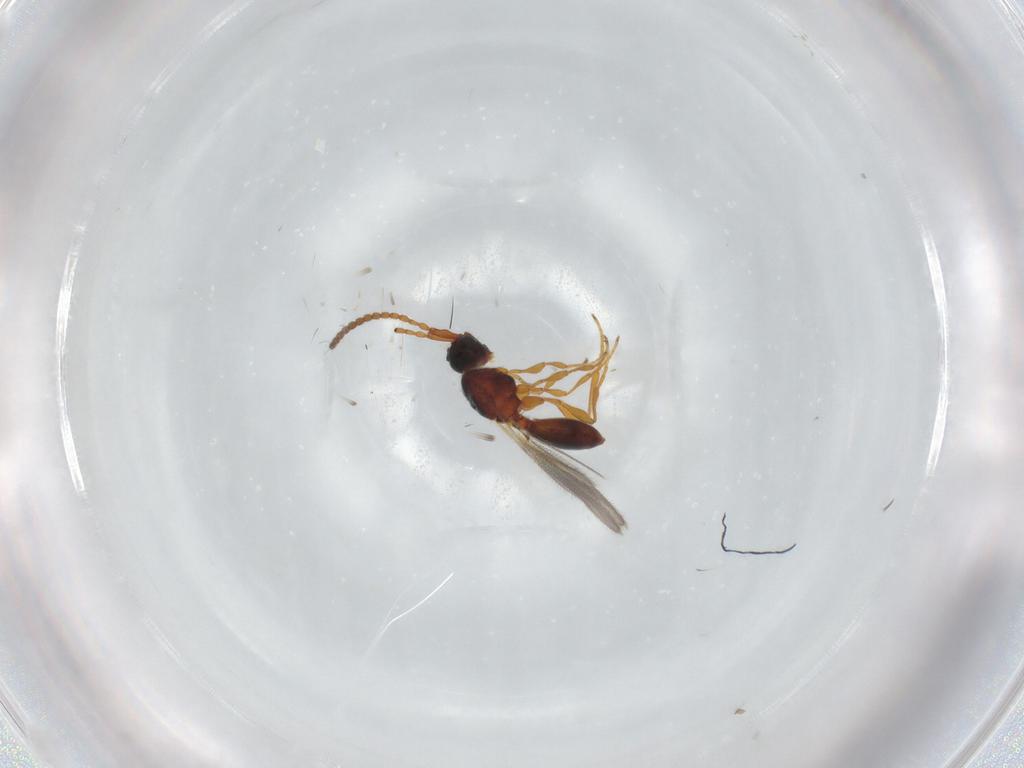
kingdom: Animalia
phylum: Arthropoda
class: Insecta
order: Hymenoptera
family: Diapriidae
